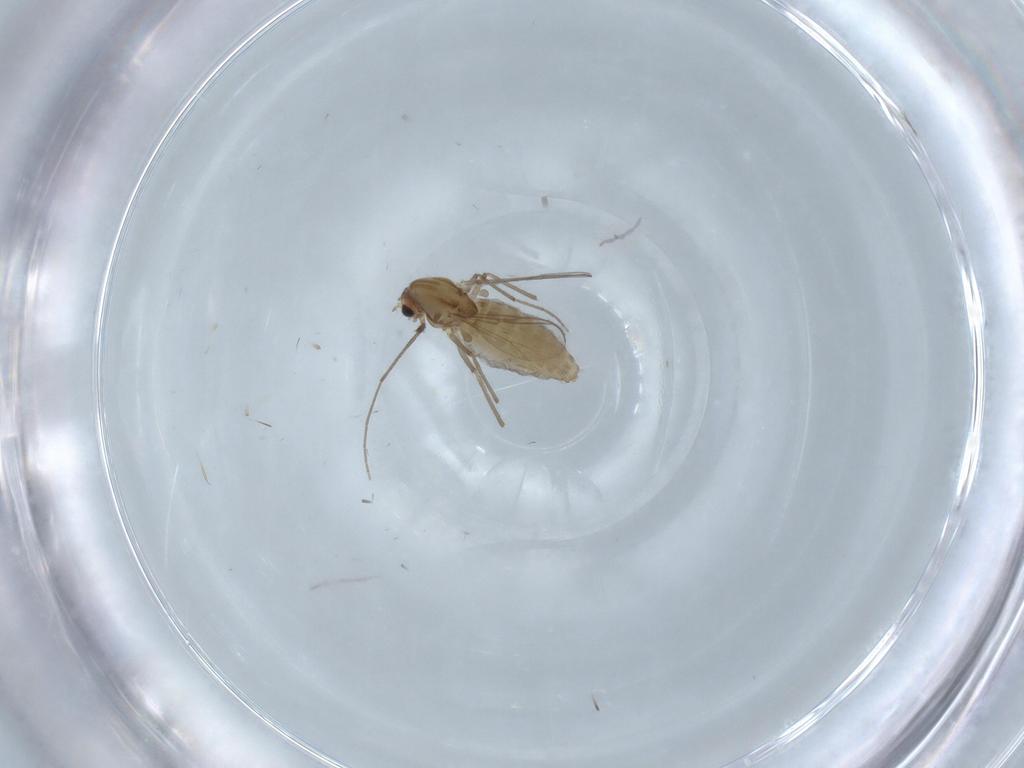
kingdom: Animalia
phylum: Arthropoda
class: Insecta
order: Diptera
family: Chironomidae
